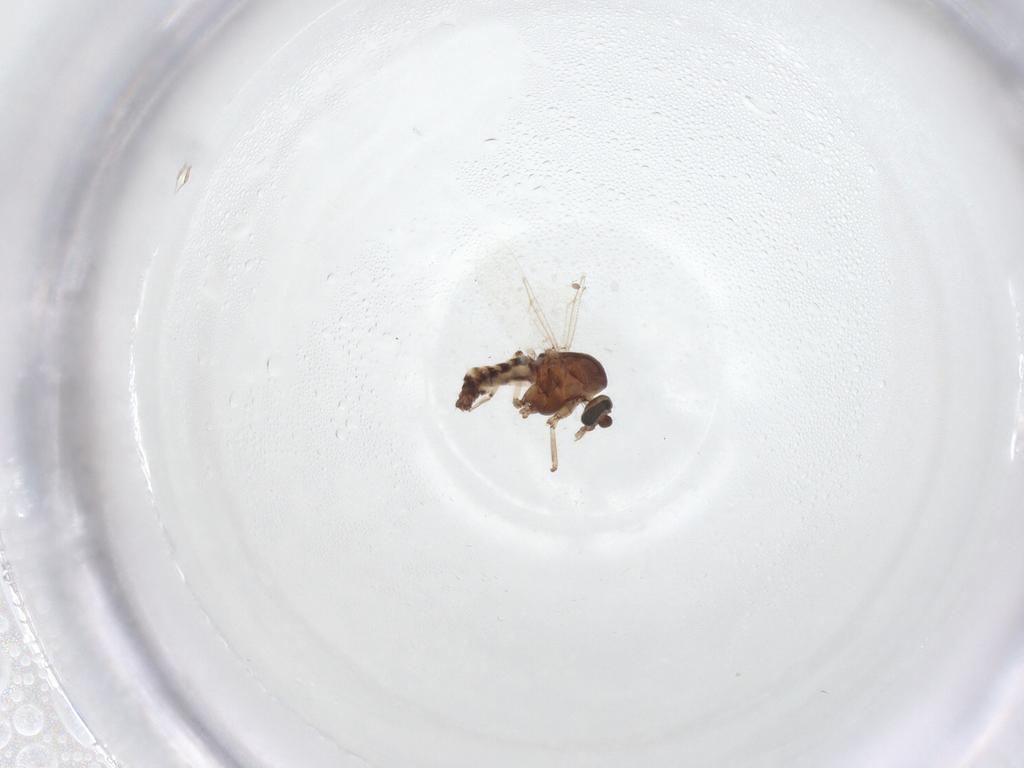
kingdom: Animalia
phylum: Arthropoda
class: Insecta
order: Diptera
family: Ceratopogonidae
